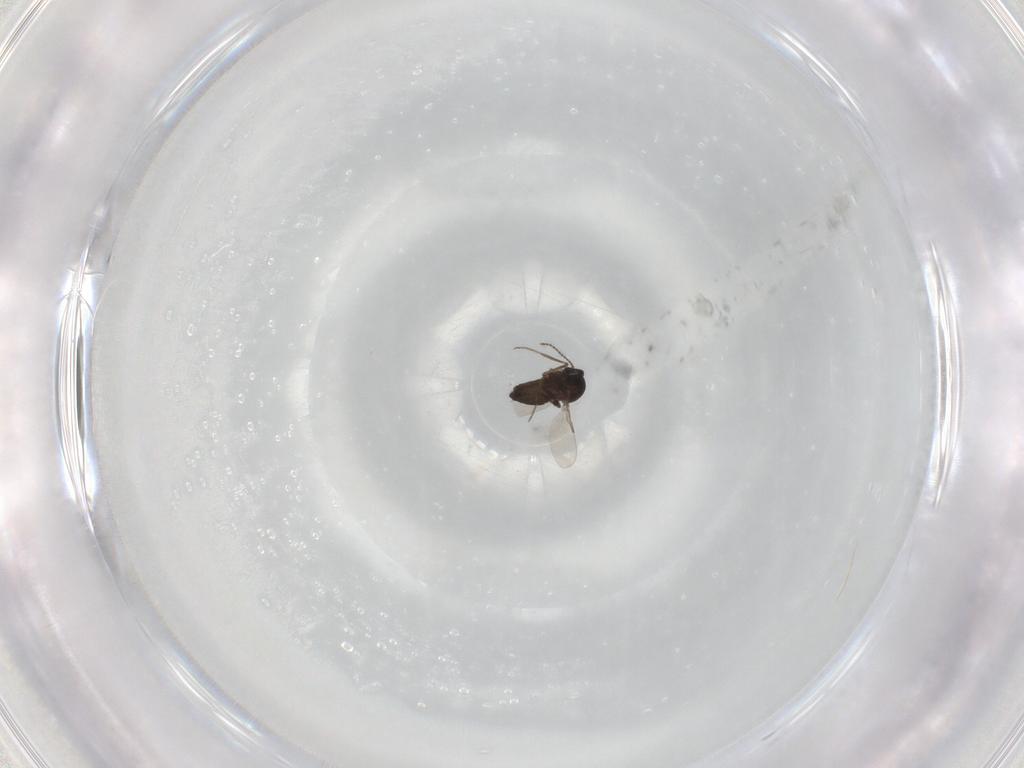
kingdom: Animalia
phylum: Arthropoda
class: Insecta
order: Diptera
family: Ceratopogonidae
